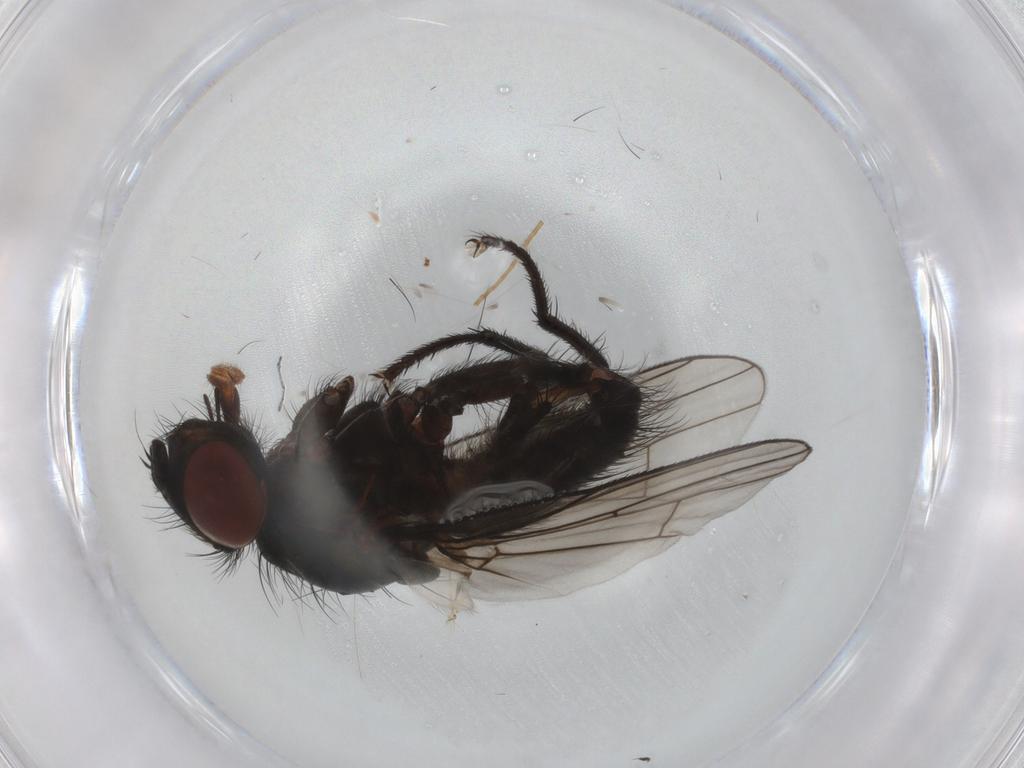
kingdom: Animalia
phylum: Arthropoda
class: Insecta
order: Diptera
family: Anthomyiidae
